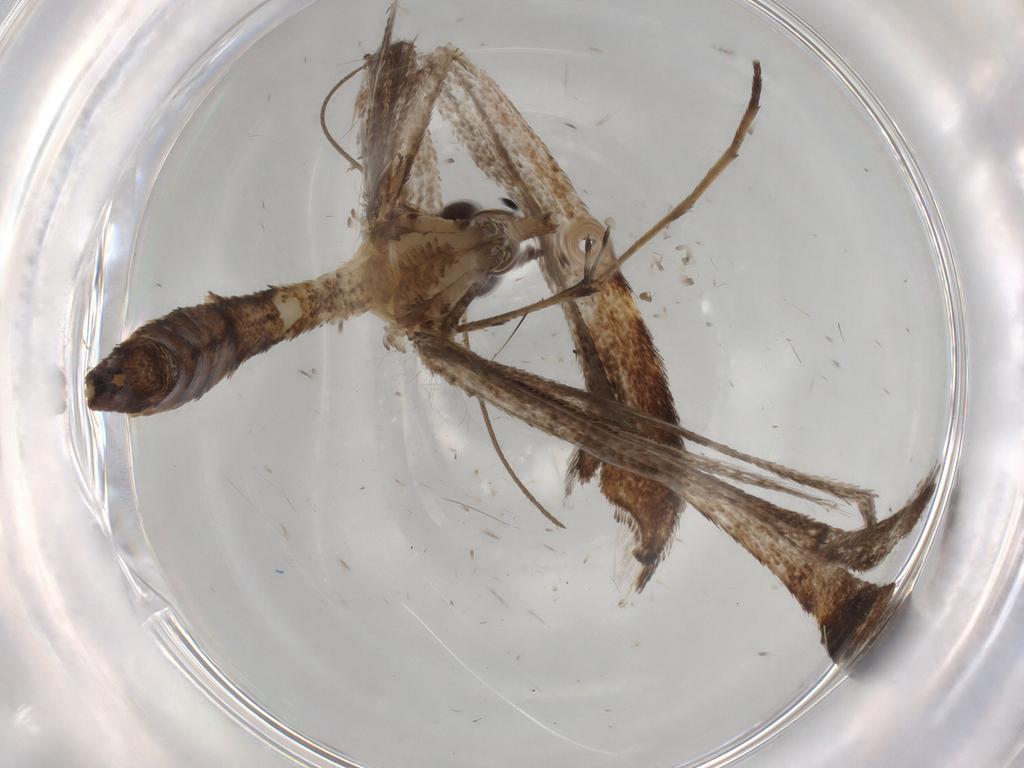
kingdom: Animalia
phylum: Arthropoda
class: Insecta
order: Lepidoptera
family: Pterophoridae
